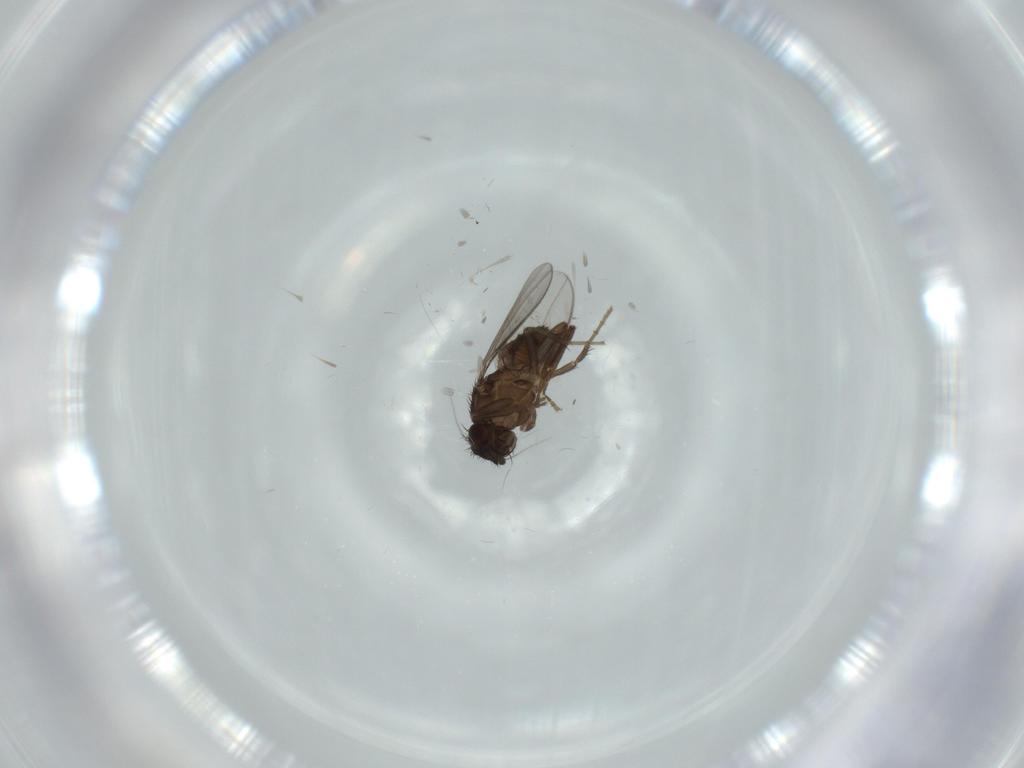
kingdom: Animalia
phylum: Arthropoda
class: Insecta
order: Diptera
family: Sphaeroceridae
